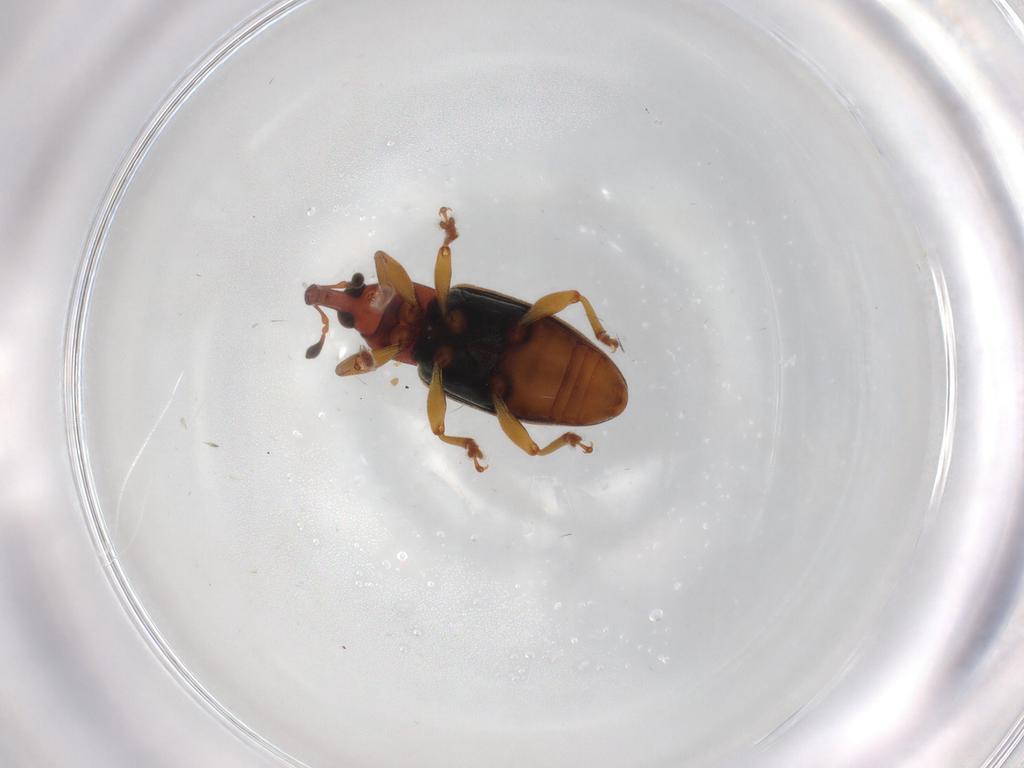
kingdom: Animalia
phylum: Arthropoda
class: Insecta
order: Coleoptera
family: Curculionidae
